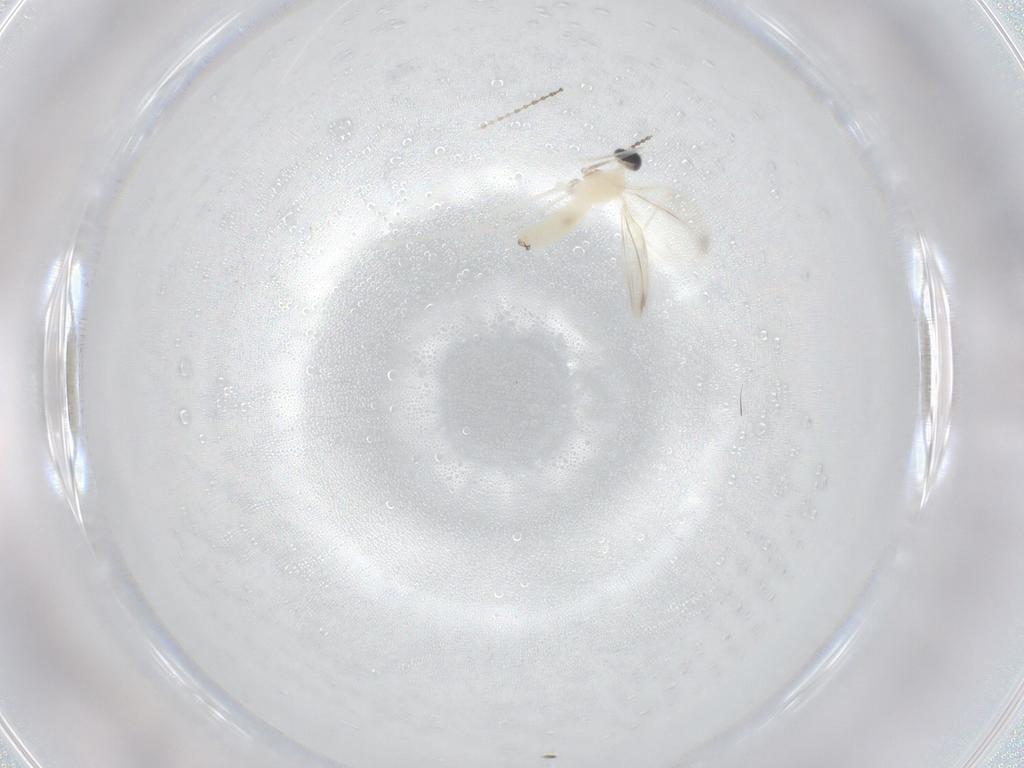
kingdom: Animalia
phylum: Arthropoda
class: Insecta
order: Diptera
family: Cecidomyiidae
